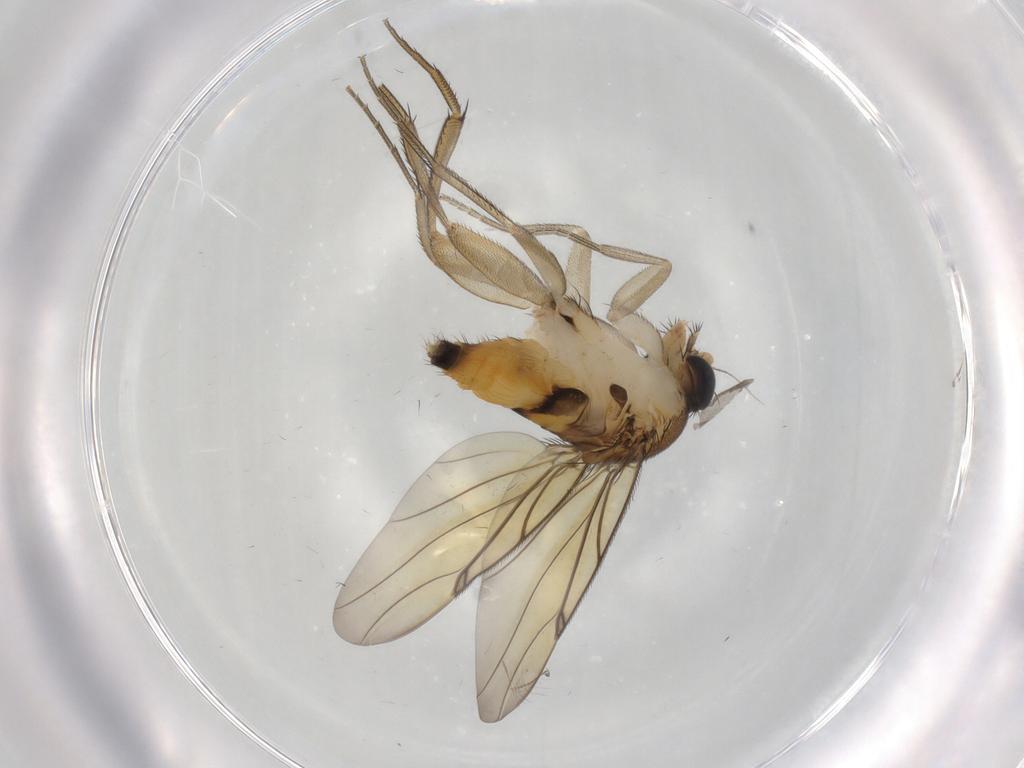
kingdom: Animalia
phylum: Arthropoda
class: Insecta
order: Diptera
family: Chironomidae
